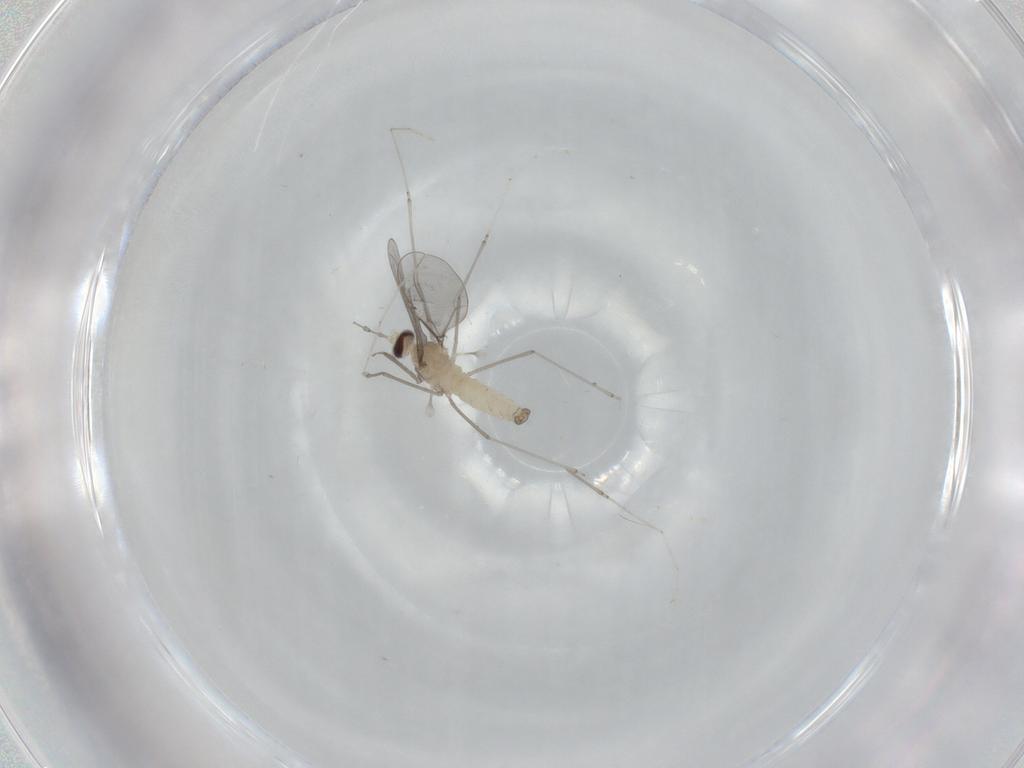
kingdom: Animalia
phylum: Arthropoda
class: Insecta
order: Diptera
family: Cecidomyiidae
